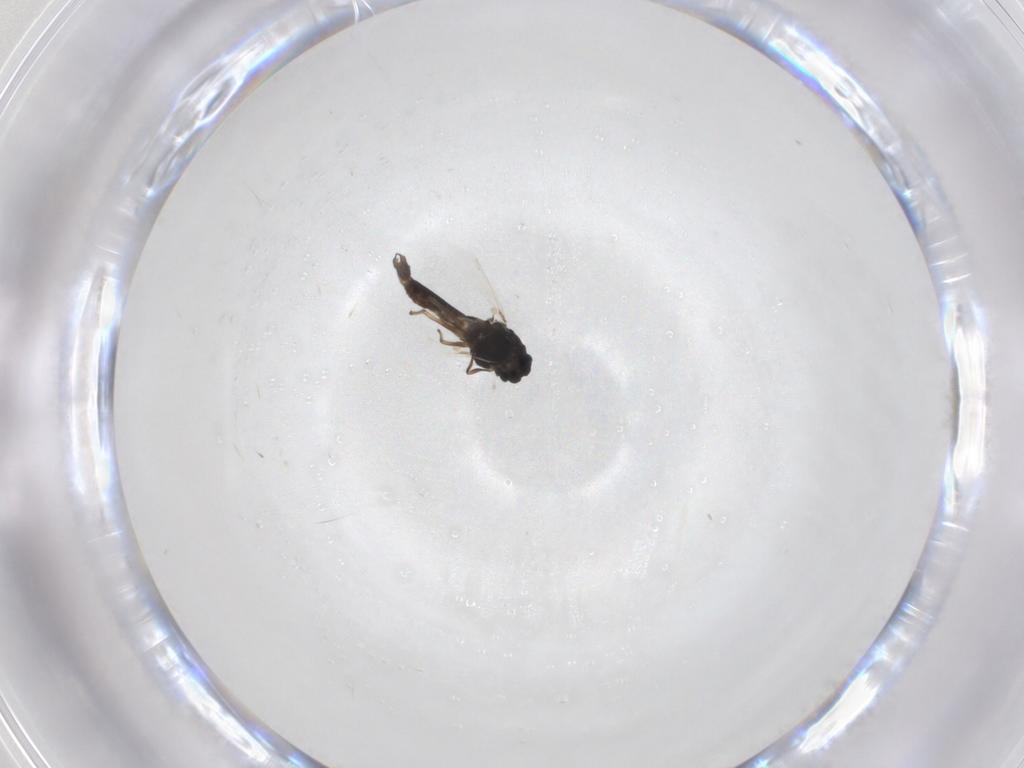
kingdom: Animalia
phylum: Arthropoda
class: Insecta
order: Diptera
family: Chironomidae
